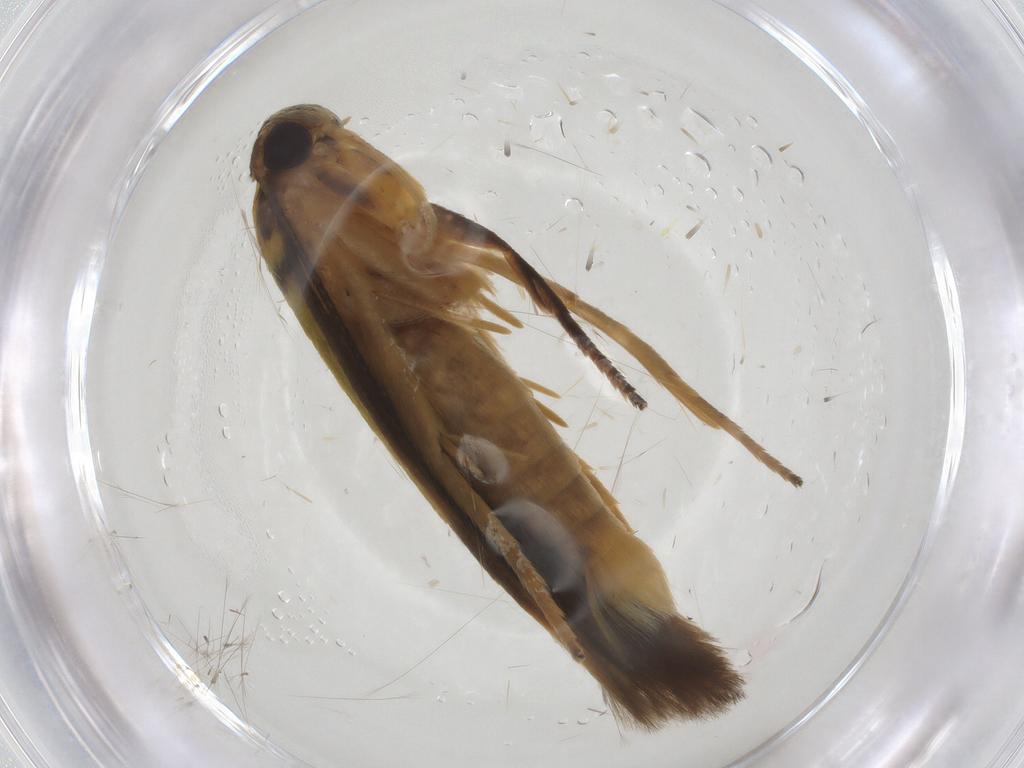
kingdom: Animalia
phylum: Arthropoda
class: Insecta
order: Lepidoptera
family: Stathmopodidae
